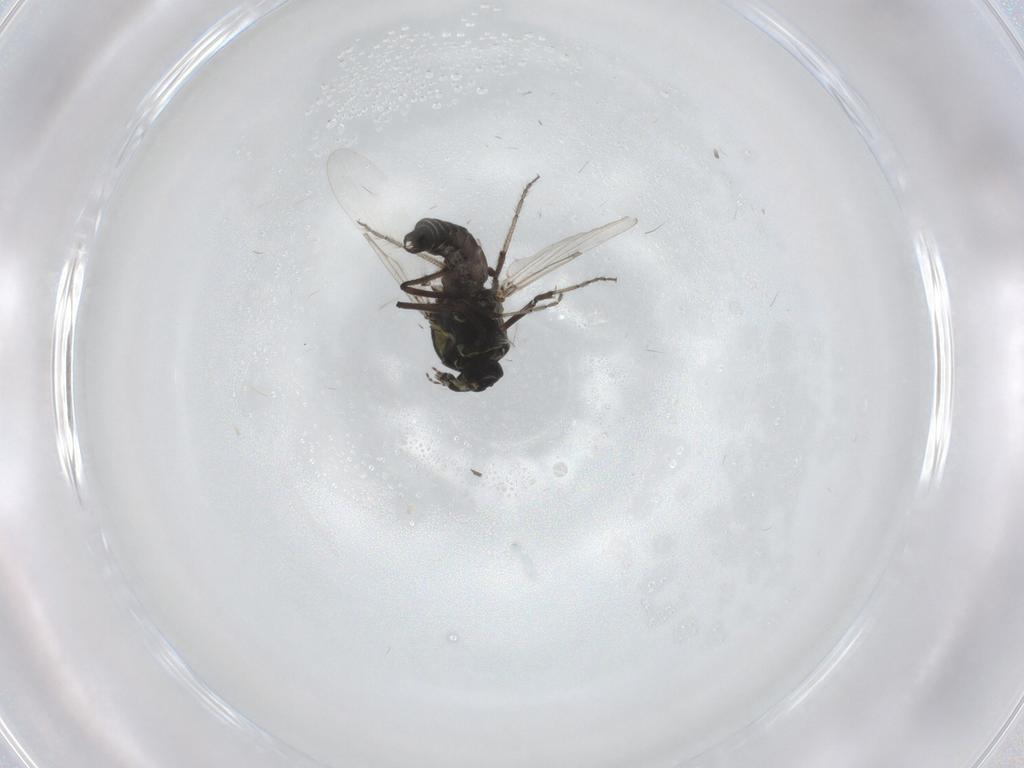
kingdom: Animalia
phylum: Arthropoda
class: Insecta
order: Diptera
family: Ceratopogonidae
